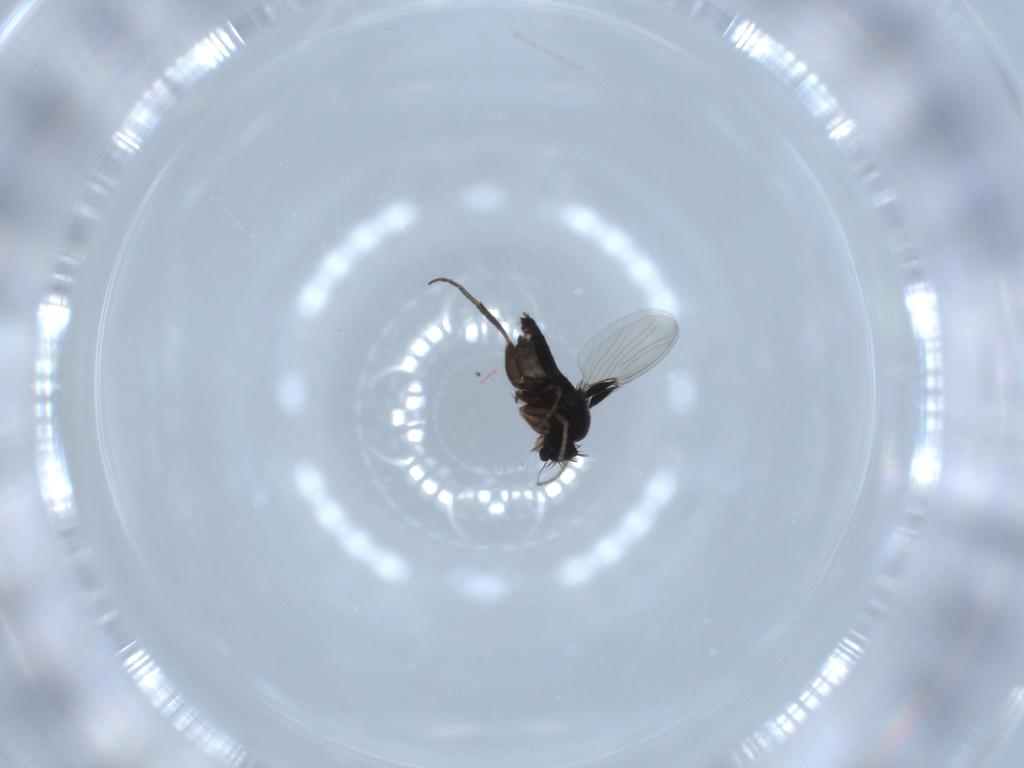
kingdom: Animalia
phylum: Arthropoda
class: Insecta
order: Diptera
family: Phoridae
